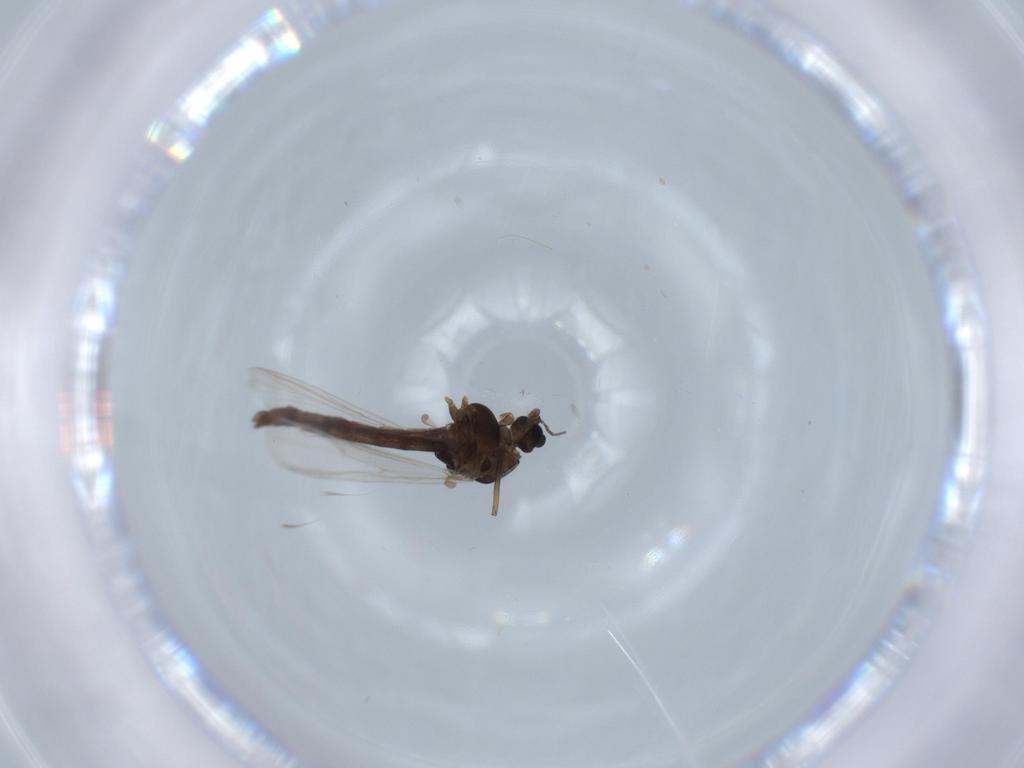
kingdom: Animalia
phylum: Arthropoda
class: Insecta
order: Diptera
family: Chironomidae
